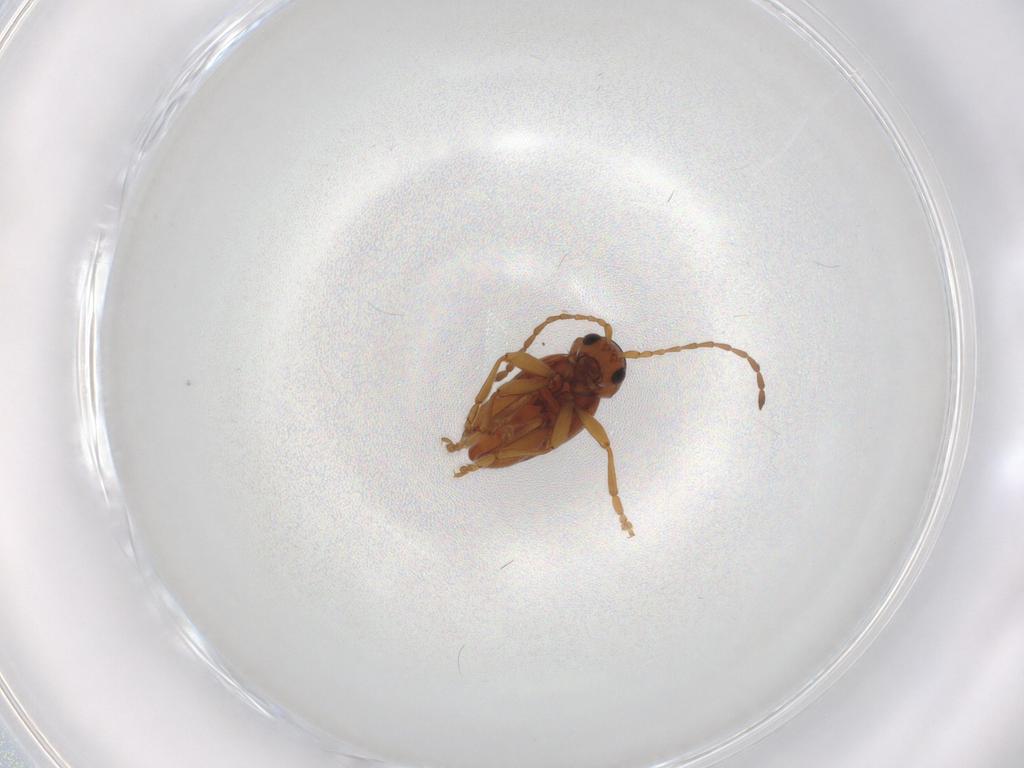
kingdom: Animalia
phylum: Arthropoda
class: Insecta
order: Coleoptera
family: Chrysomelidae
